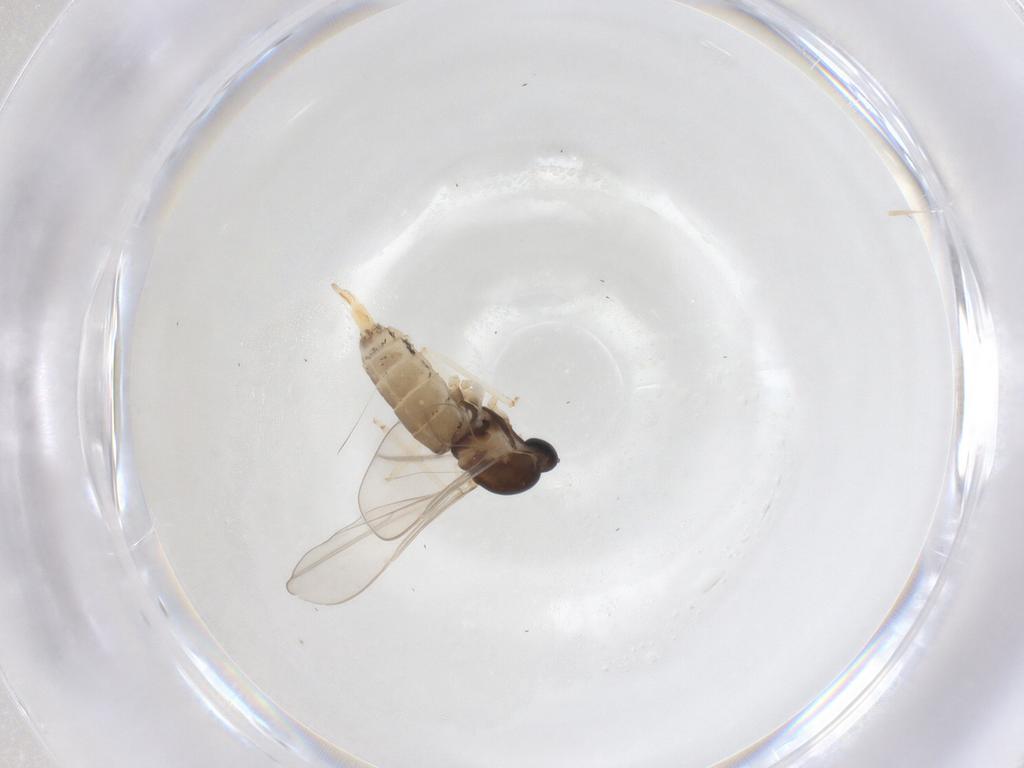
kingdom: Animalia
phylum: Arthropoda
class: Insecta
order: Diptera
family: Cecidomyiidae
